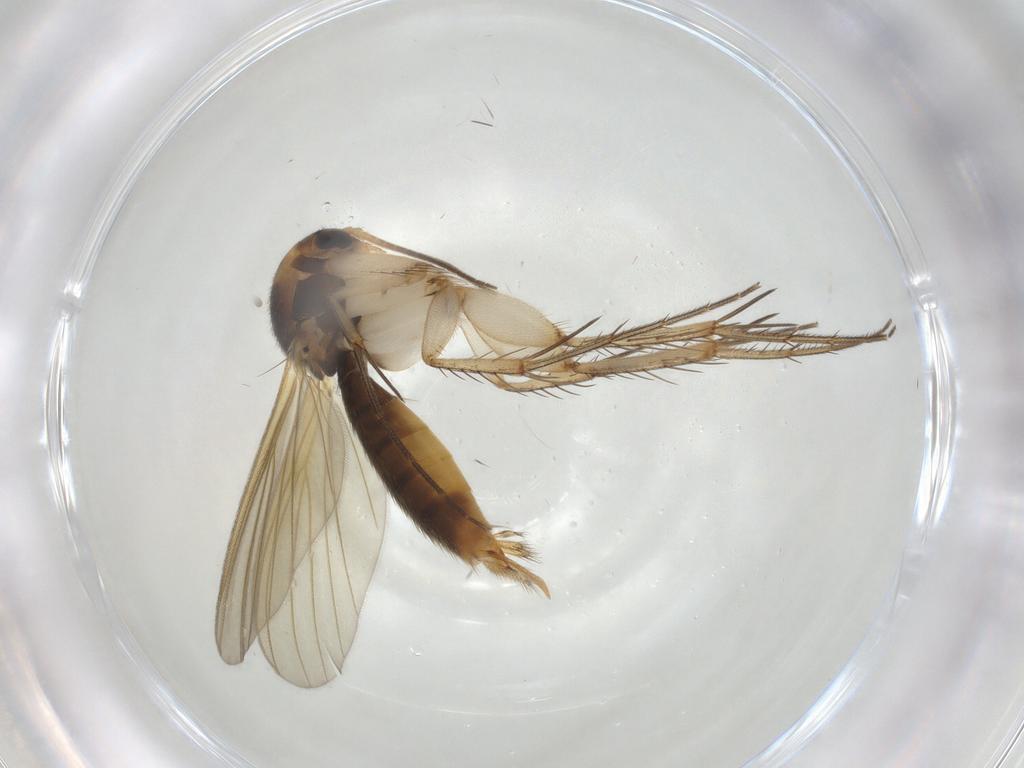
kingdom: Animalia
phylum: Arthropoda
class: Insecta
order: Diptera
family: Mycetophilidae
